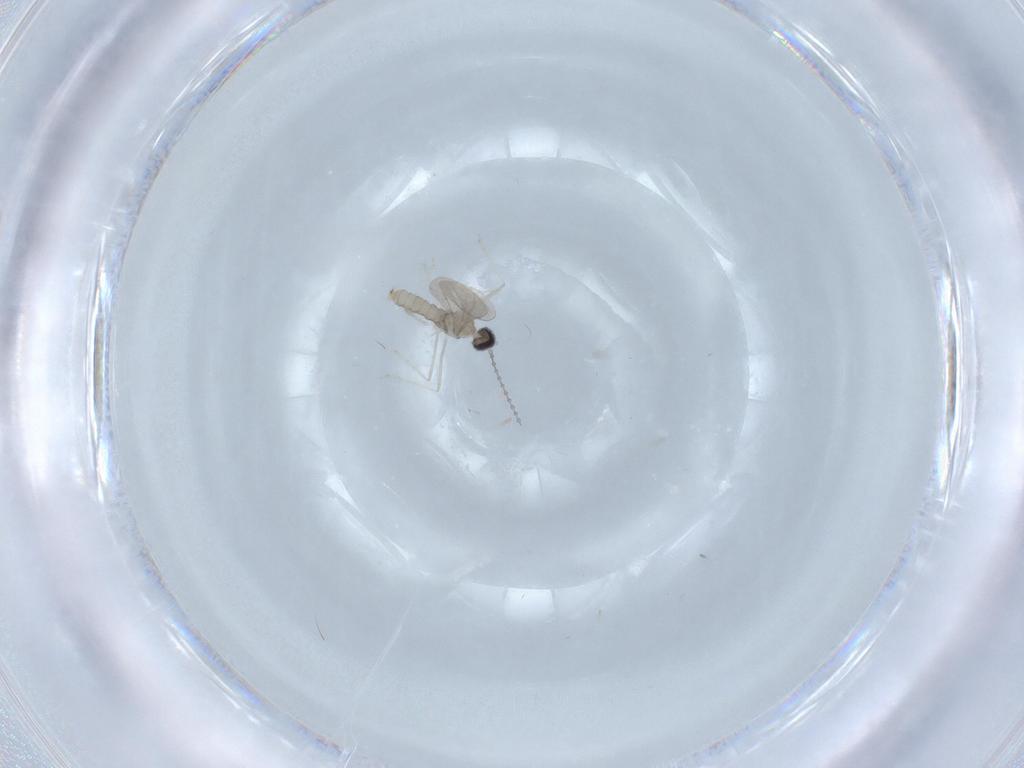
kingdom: Animalia
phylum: Arthropoda
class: Insecta
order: Diptera
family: Cecidomyiidae
